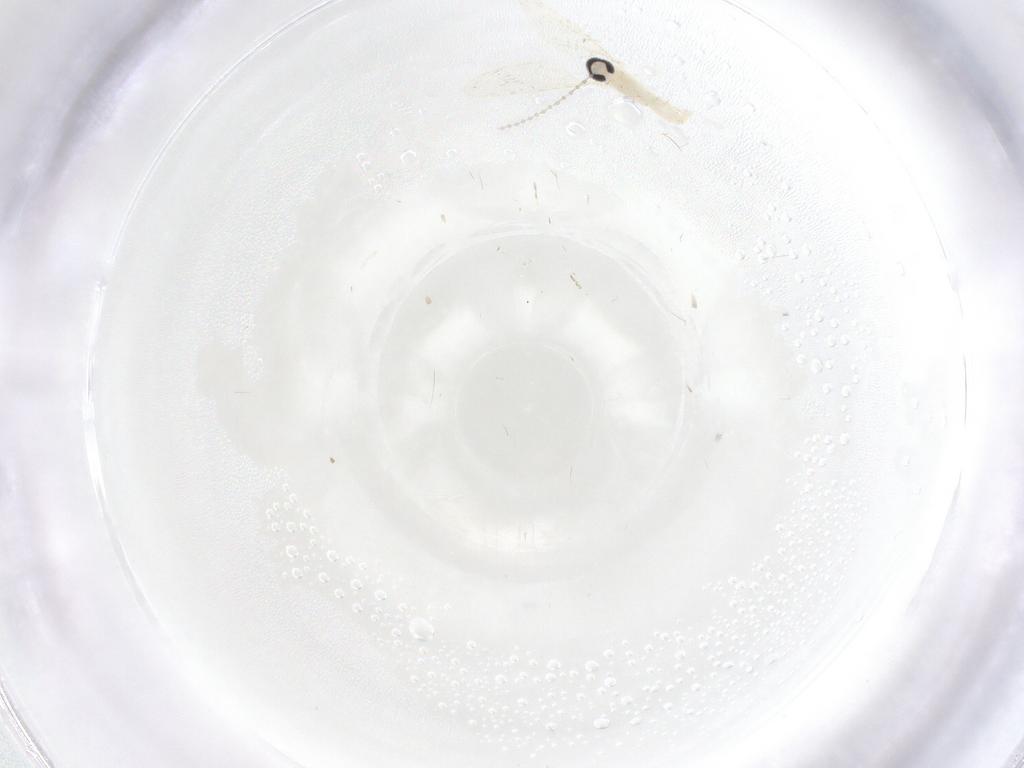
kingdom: Animalia
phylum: Arthropoda
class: Insecta
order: Diptera
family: Cecidomyiidae
